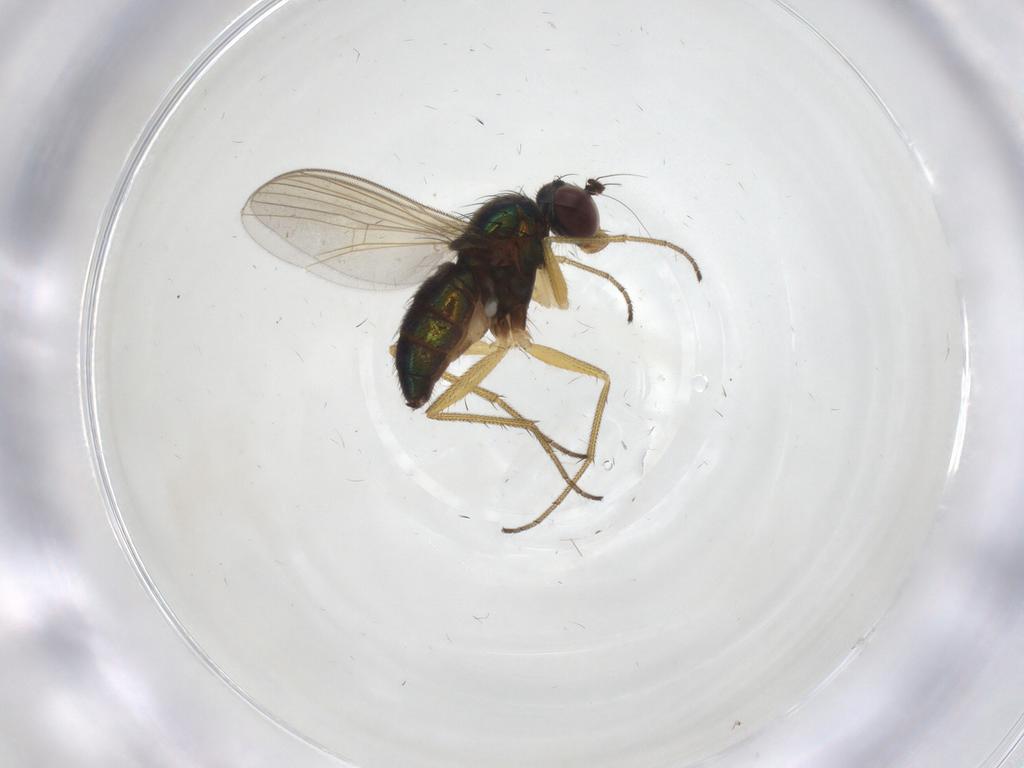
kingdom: Animalia
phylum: Arthropoda
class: Insecta
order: Diptera
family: Dolichopodidae
